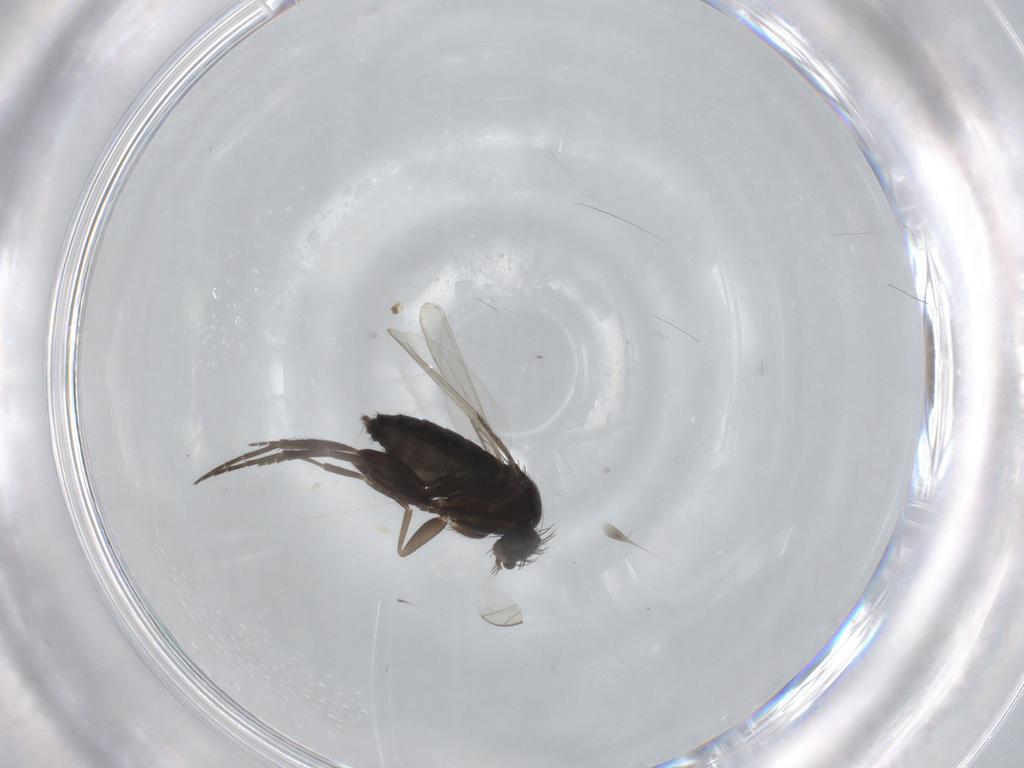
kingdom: Animalia
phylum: Arthropoda
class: Insecta
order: Diptera
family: Phoridae
